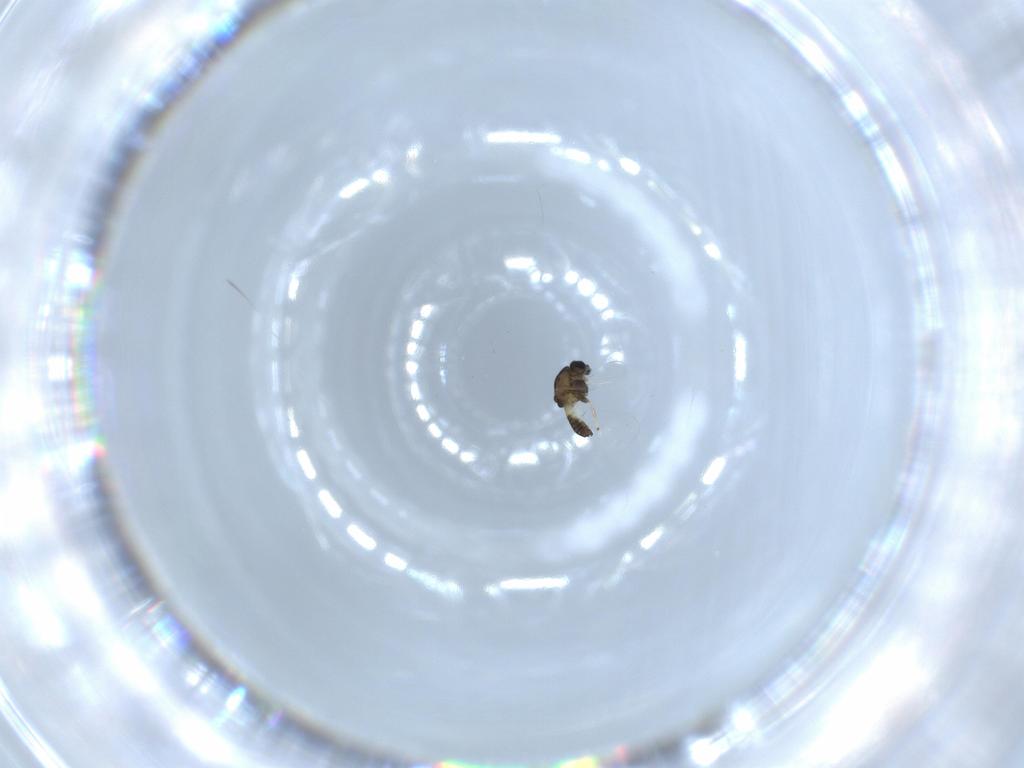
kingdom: Animalia
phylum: Arthropoda
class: Insecta
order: Diptera
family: Chironomidae
